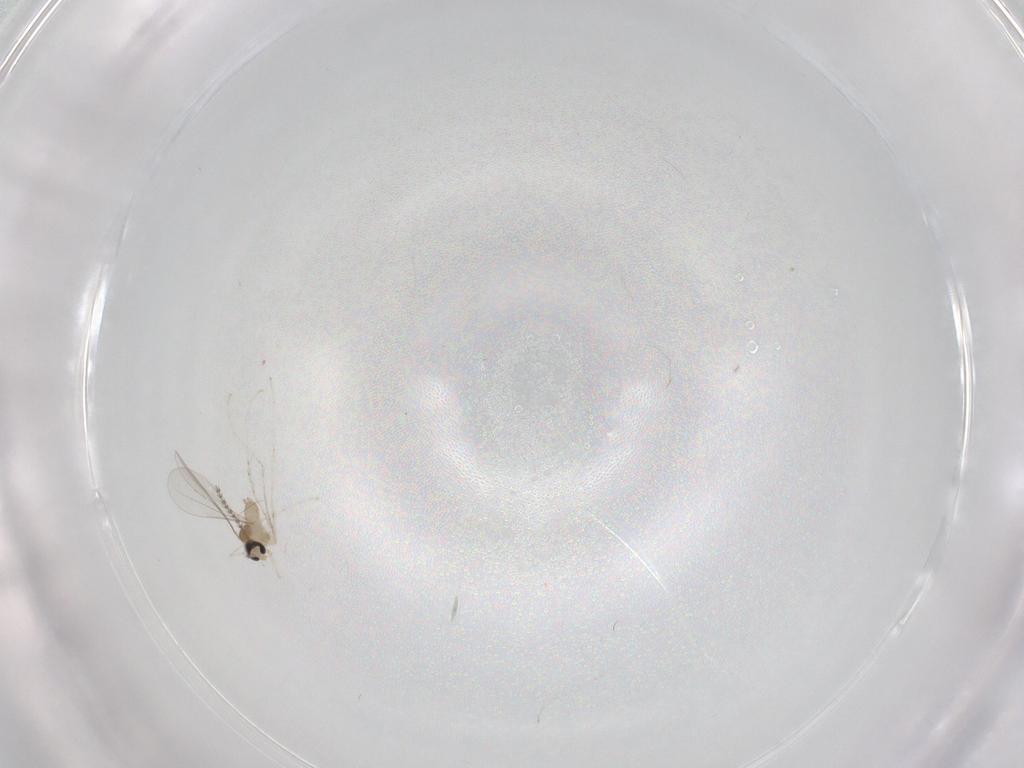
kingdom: Animalia
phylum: Arthropoda
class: Insecta
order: Diptera
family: Cecidomyiidae
